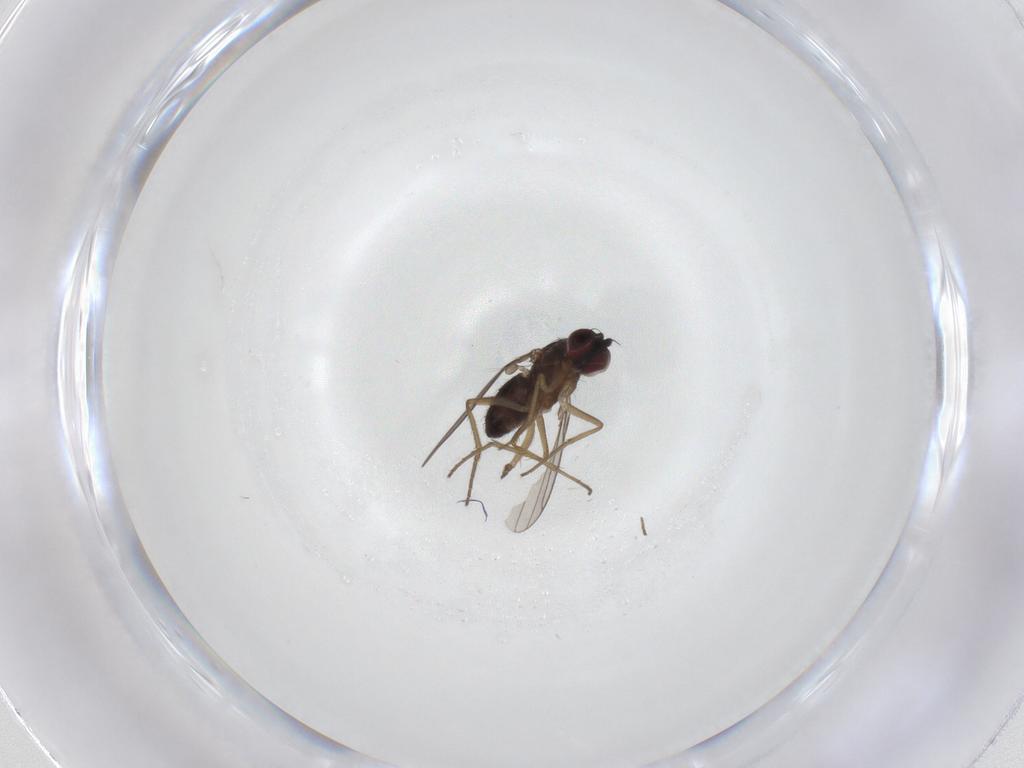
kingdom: Animalia
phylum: Arthropoda
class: Insecta
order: Diptera
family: Dolichopodidae
